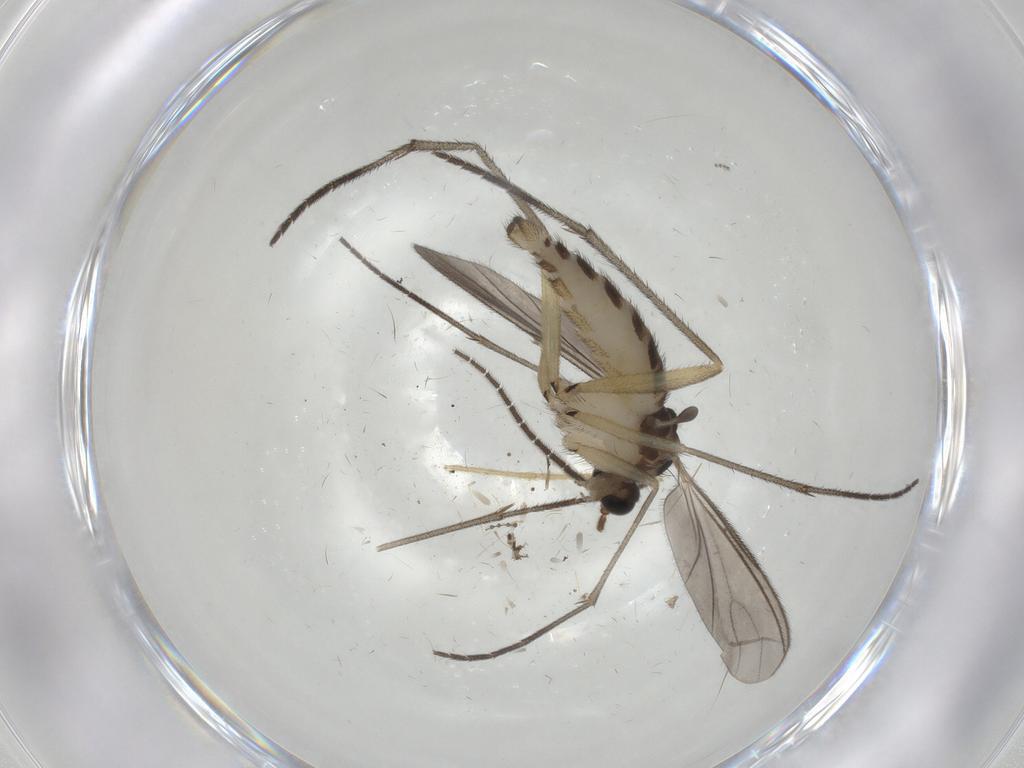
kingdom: Animalia
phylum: Arthropoda
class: Insecta
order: Diptera
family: Sciaridae
